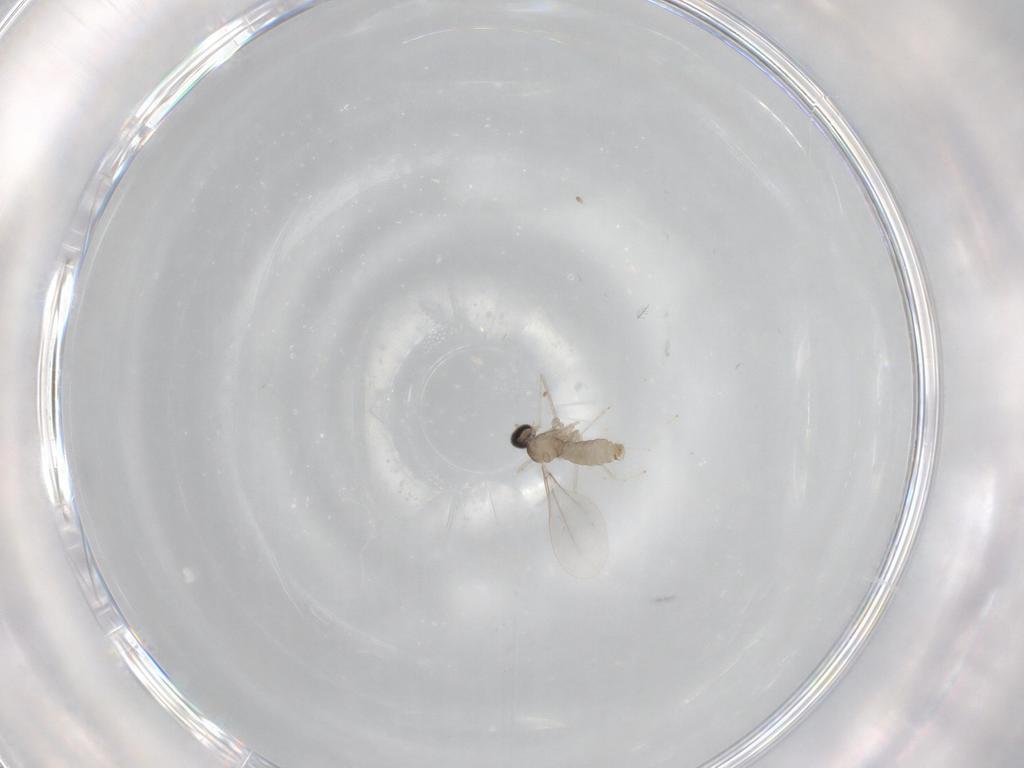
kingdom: Animalia
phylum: Arthropoda
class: Insecta
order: Diptera
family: Cecidomyiidae
